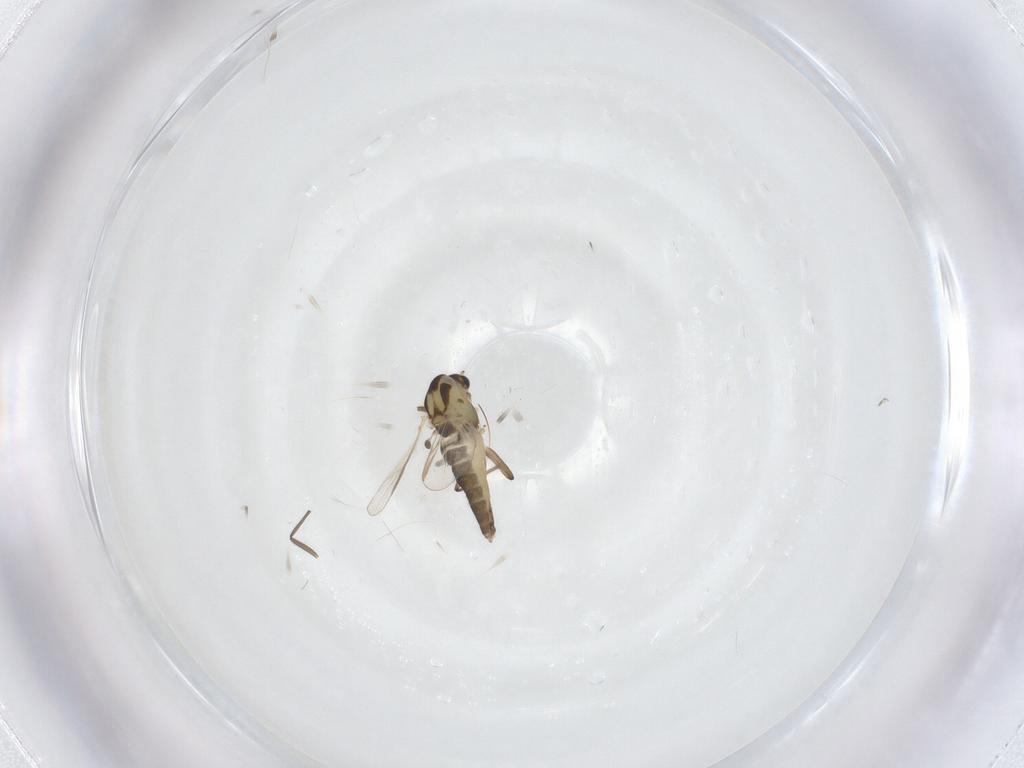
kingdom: Animalia
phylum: Arthropoda
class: Insecta
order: Diptera
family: Chironomidae
